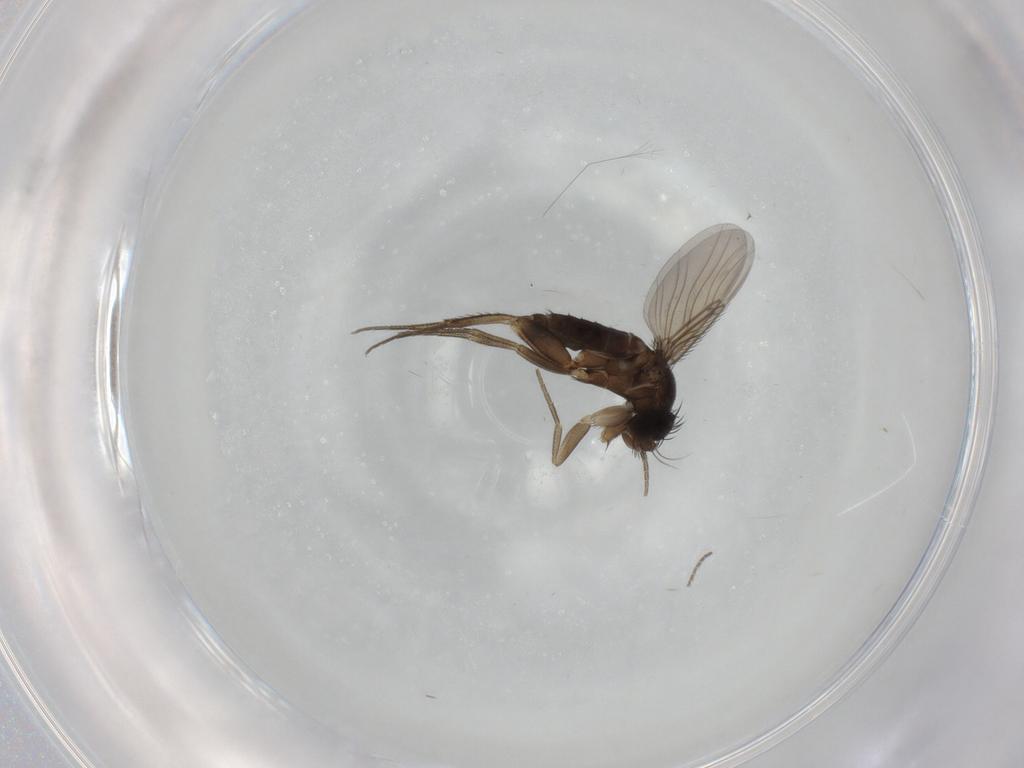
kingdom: Animalia
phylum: Arthropoda
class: Insecta
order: Diptera
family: Phoridae
